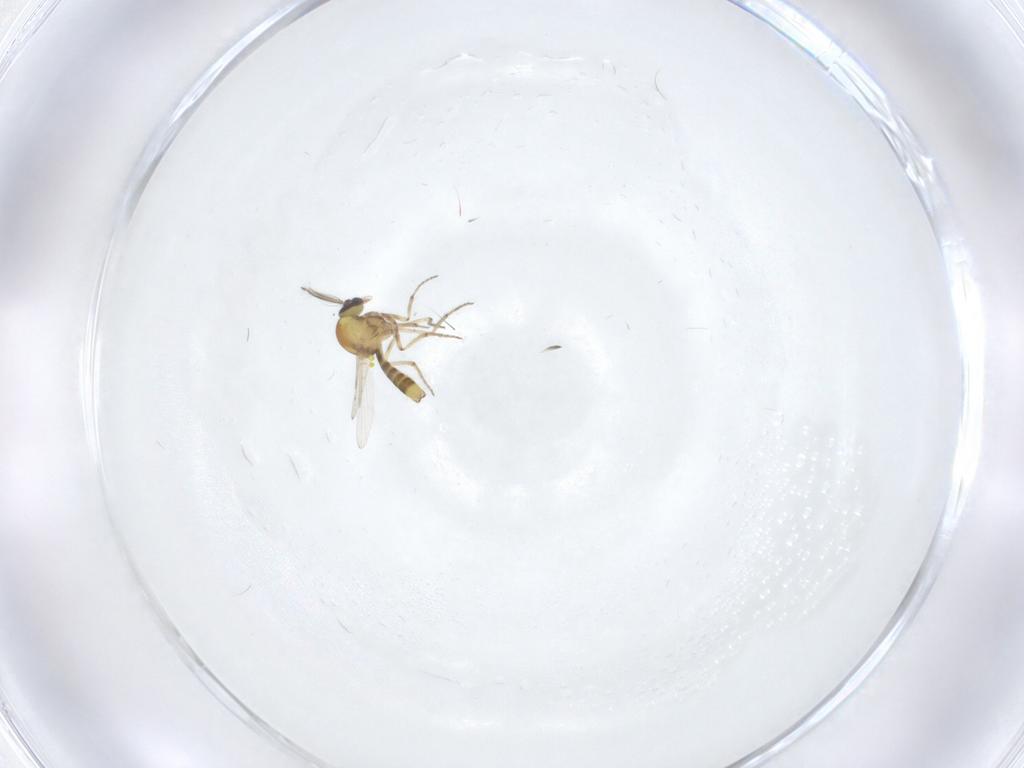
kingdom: Animalia
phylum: Arthropoda
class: Insecta
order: Diptera
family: Ceratopogonidae
